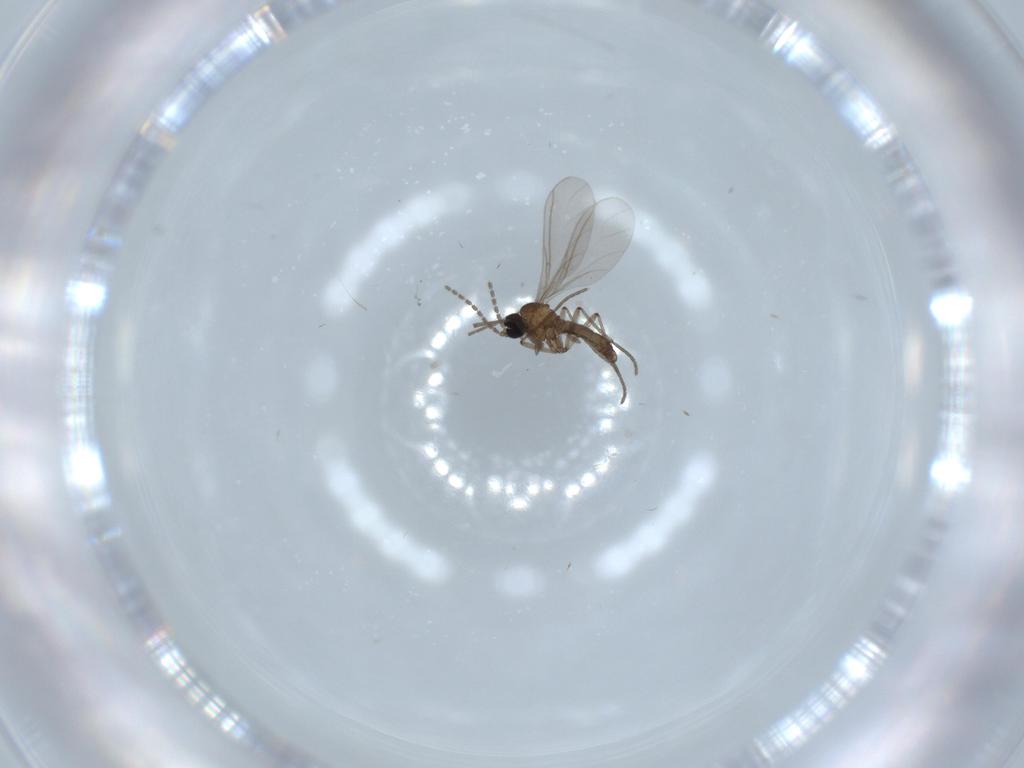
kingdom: Animalia
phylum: Arthropoda
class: Insecta
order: Diptera
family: Sciaridae
